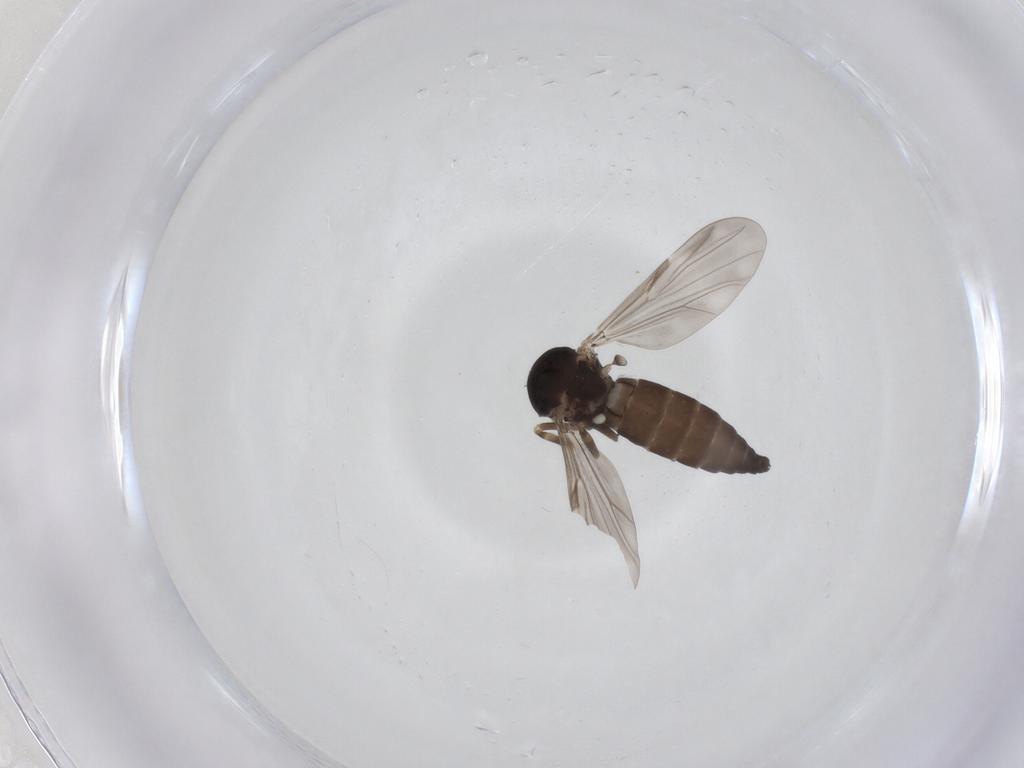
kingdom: Animalia
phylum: Arthropoda
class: Insecta
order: Diptera
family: Ceratopogonidae
